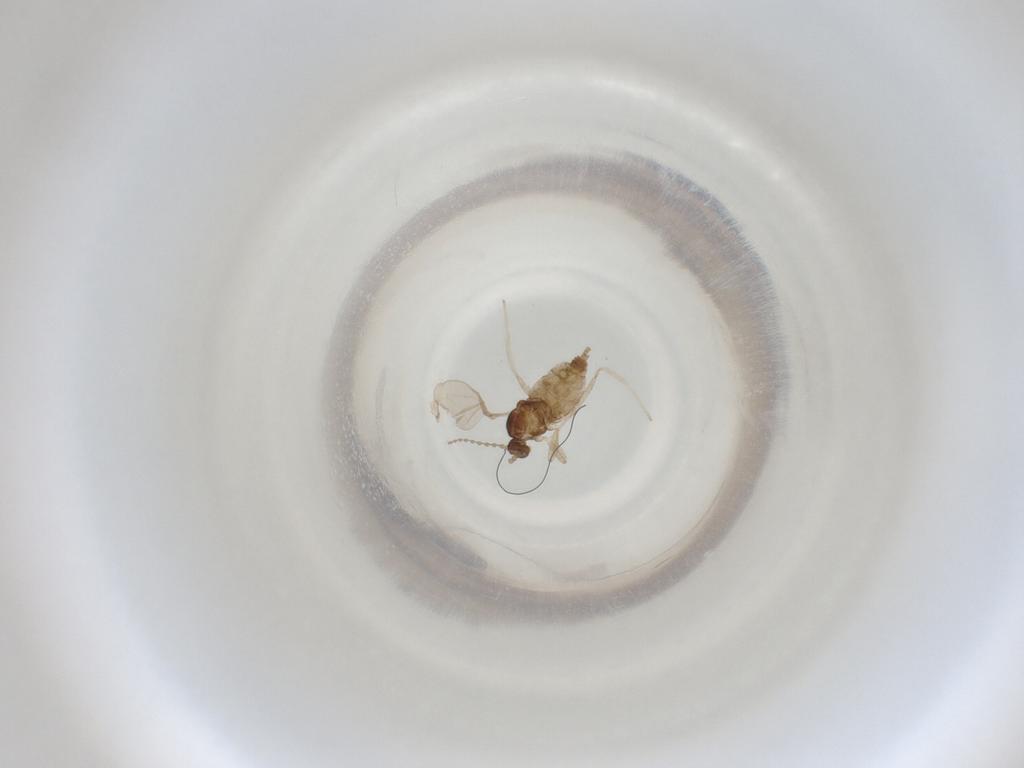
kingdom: Animalia
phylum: Arthropoda
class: Insecta
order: Diptera
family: Cecidomyiidae
